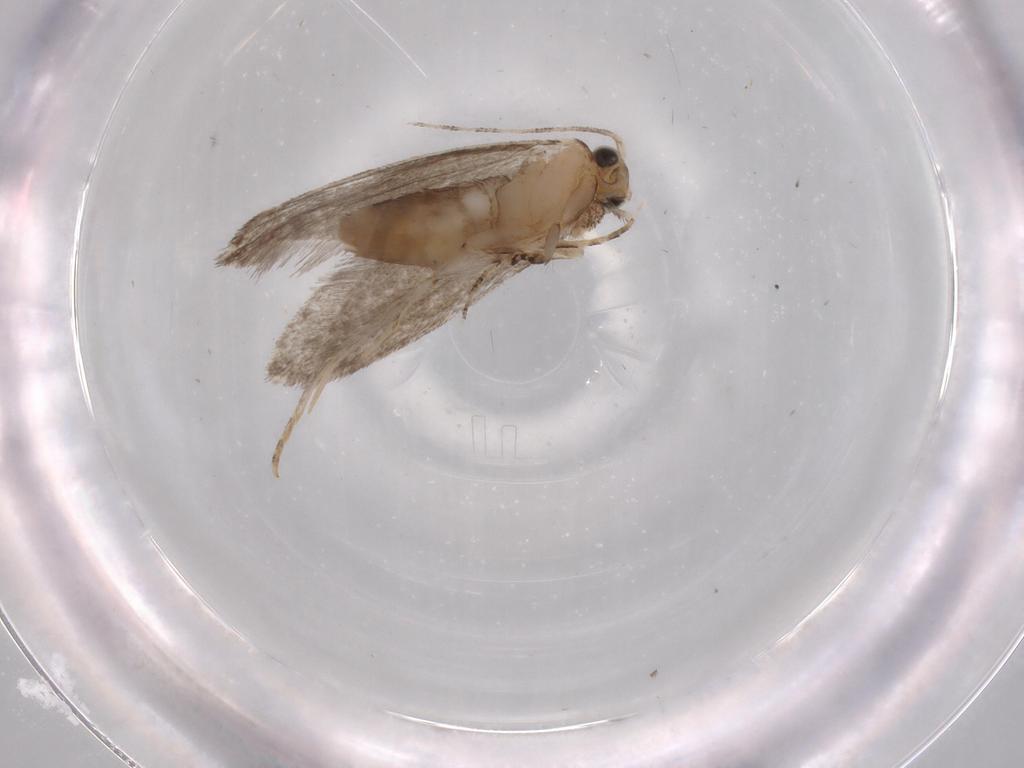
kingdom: Animalia
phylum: Arthropoda
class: Insecta
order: Lepidoptera
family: Tineidae
